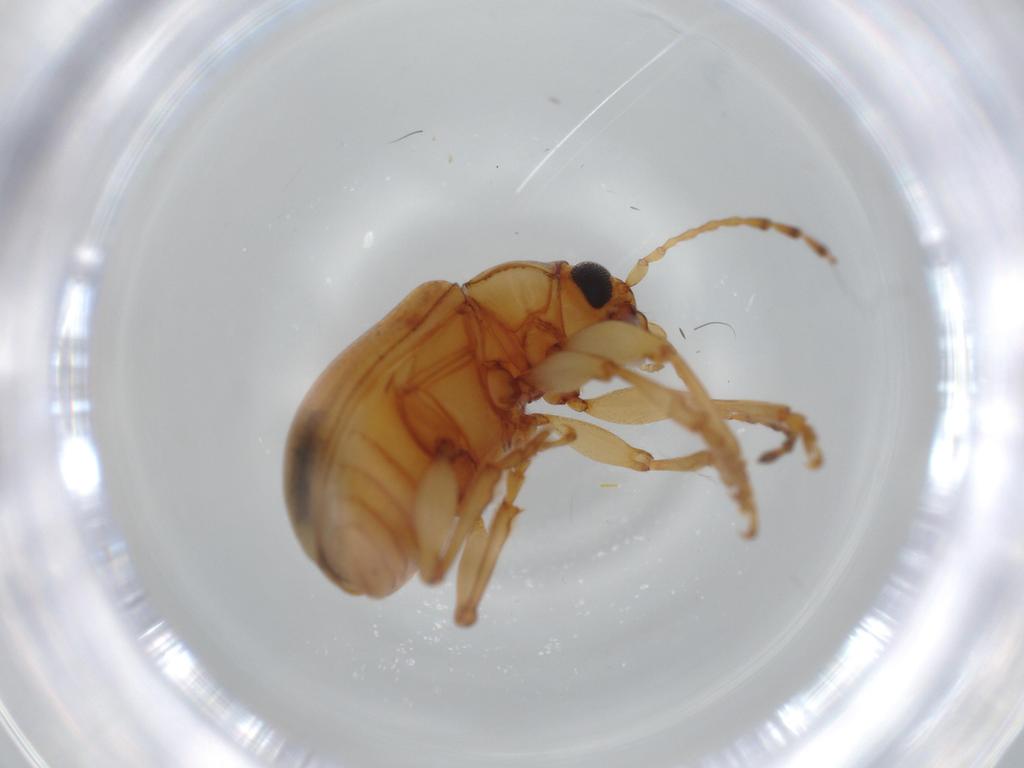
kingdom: Animalia
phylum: Arthropoda
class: Insecta
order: Coleoptera
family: Chrysomelidae
